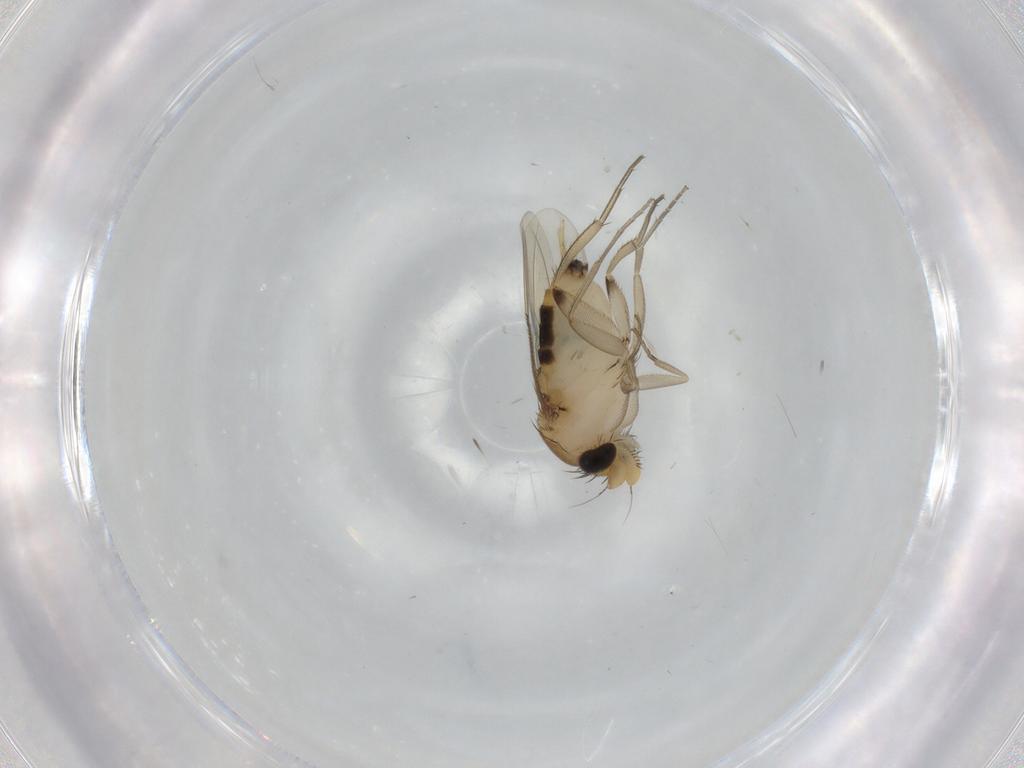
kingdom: Animalia
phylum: Arthropoda
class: Insecta
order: Diptera
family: Phoridae
